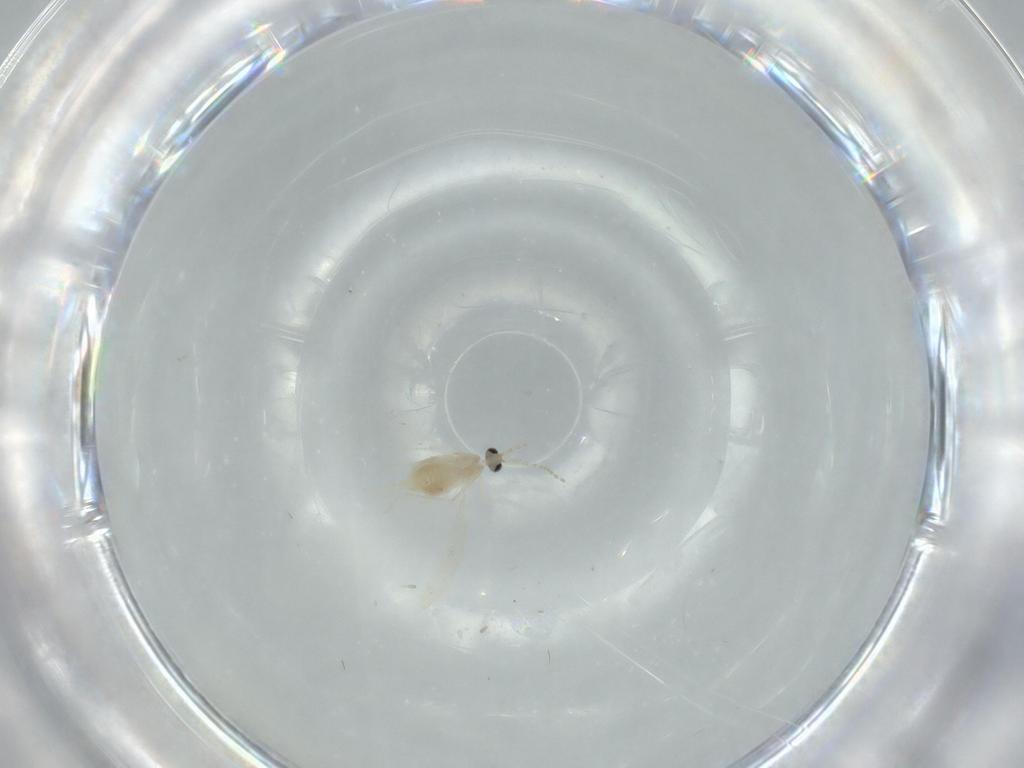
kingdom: Animalia
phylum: Arthropoda
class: Insecta
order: Diptera
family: Cecidomyiidae
